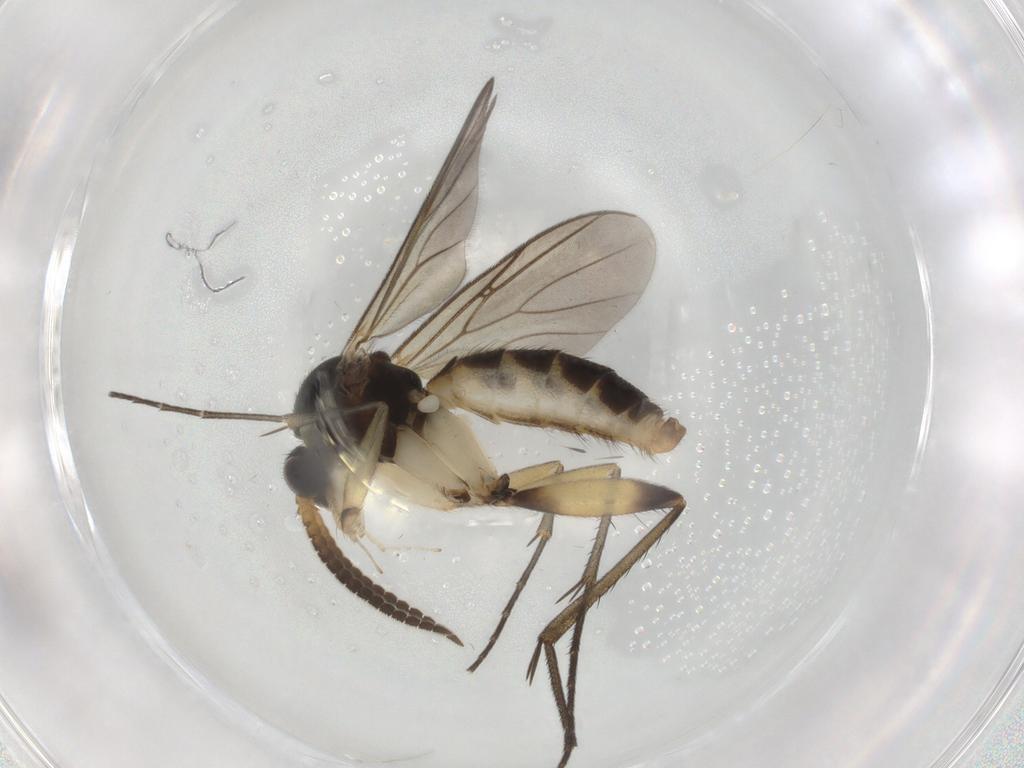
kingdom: Animalia
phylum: Arthropoda
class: Insecta
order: Diptera
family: Mycetophilidae
